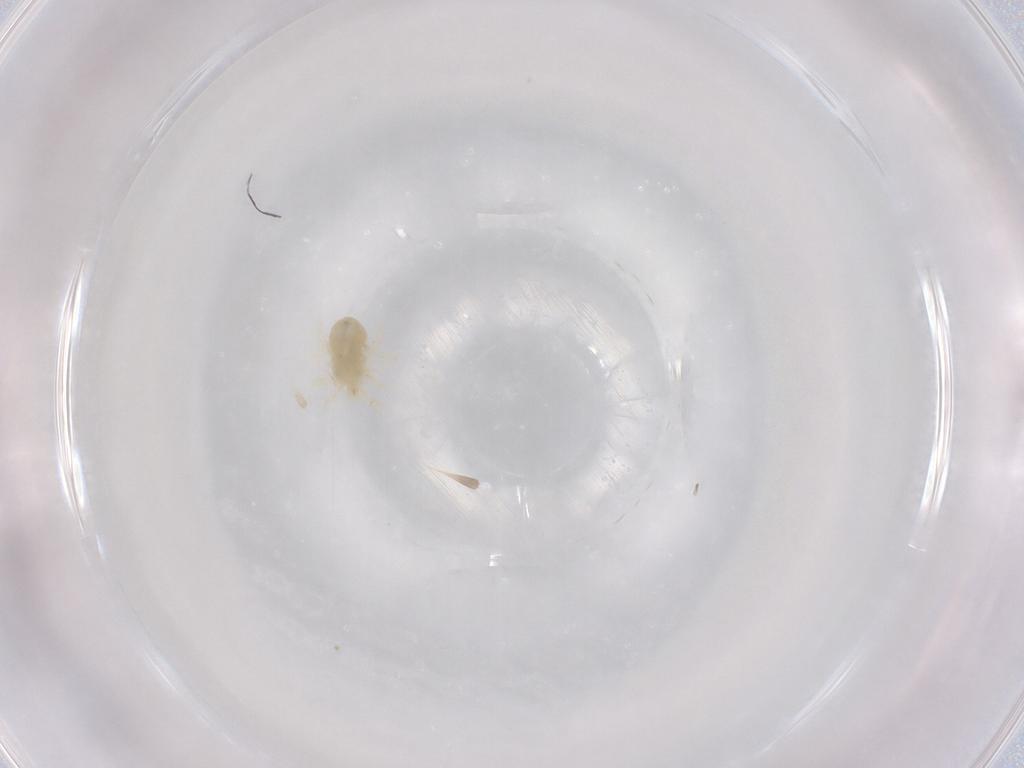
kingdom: Animalia
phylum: Arthropoda
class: Arachnida
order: Trombidiformes
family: Anystidae
